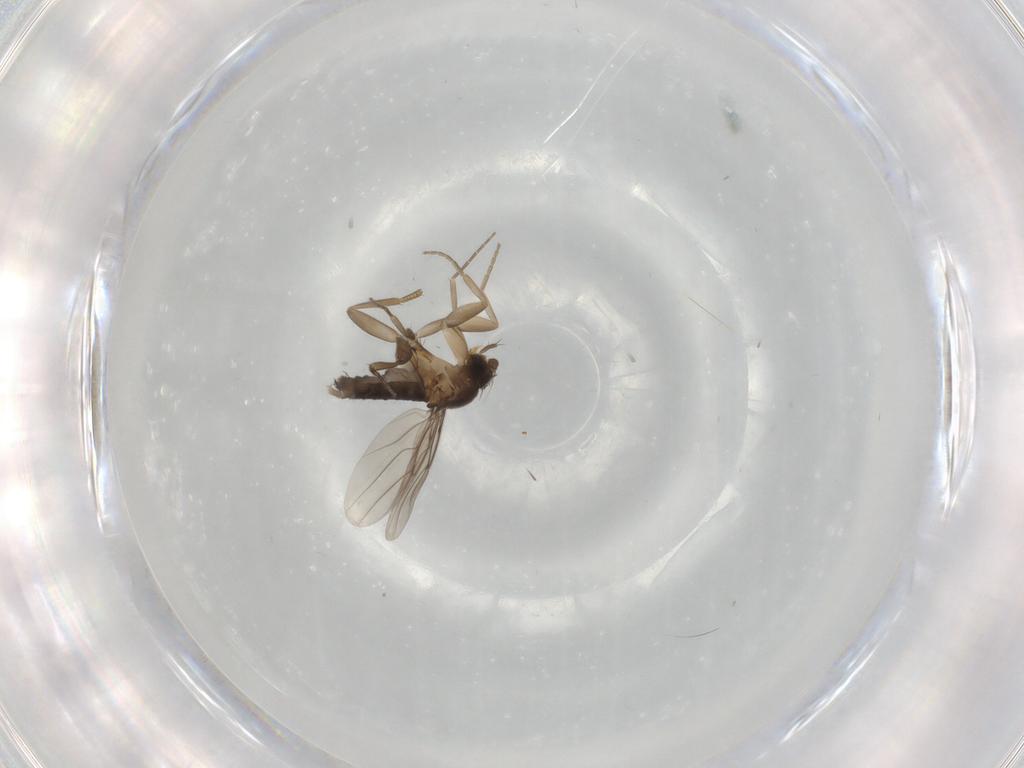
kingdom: Animalia
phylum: Arthropoda
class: Insecta
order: Diptera
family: Phoridae
